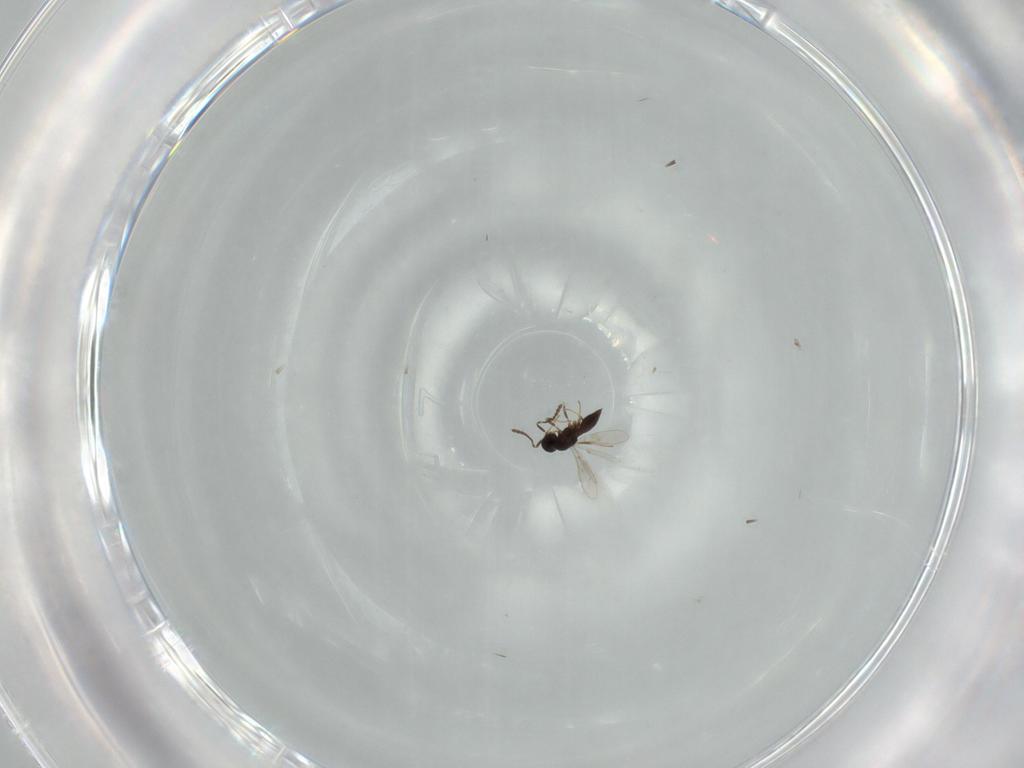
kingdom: Animalia
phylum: Arthropoda
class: Insecta
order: Hymenoptera
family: Scelionidae
